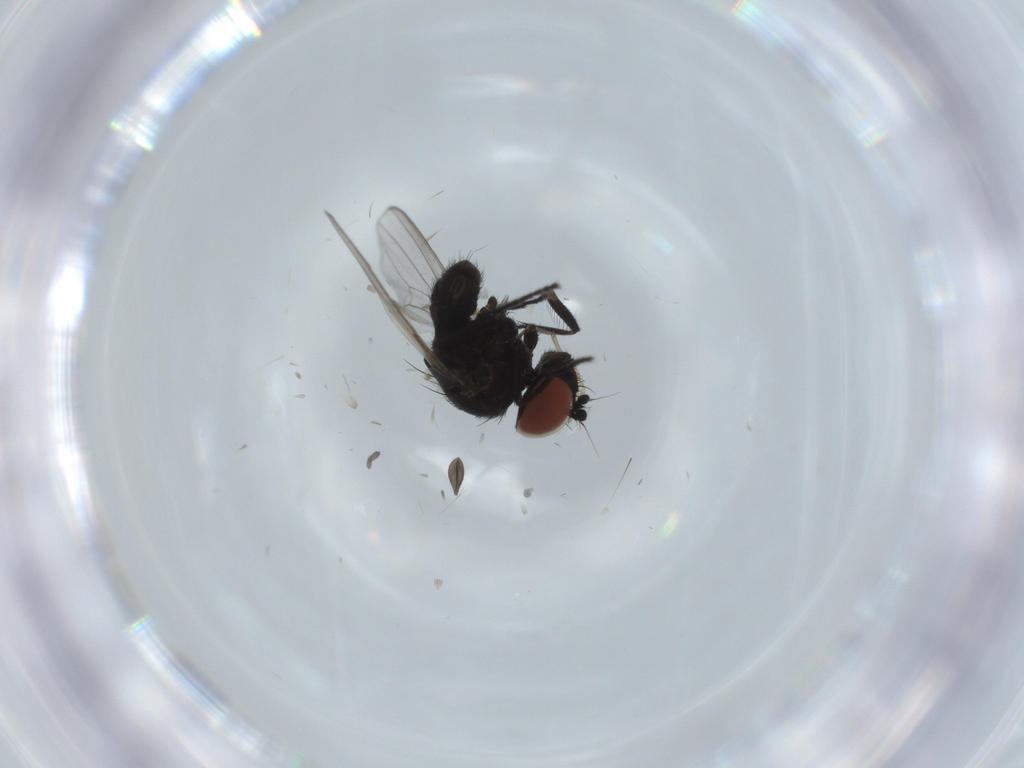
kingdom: Animalia
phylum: Arthropoda
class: Insecta
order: Diptera
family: Milichiidae
